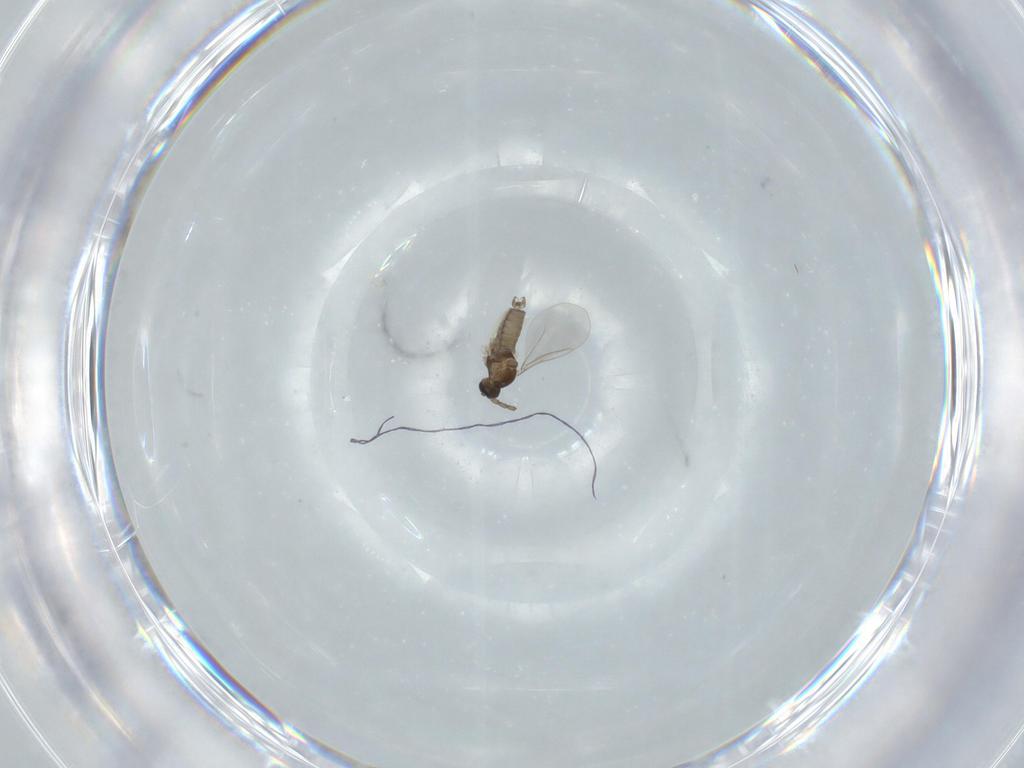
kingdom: Animalia
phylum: Arthropoda
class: Insecta
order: Diptera
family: Cecidomyiidae
